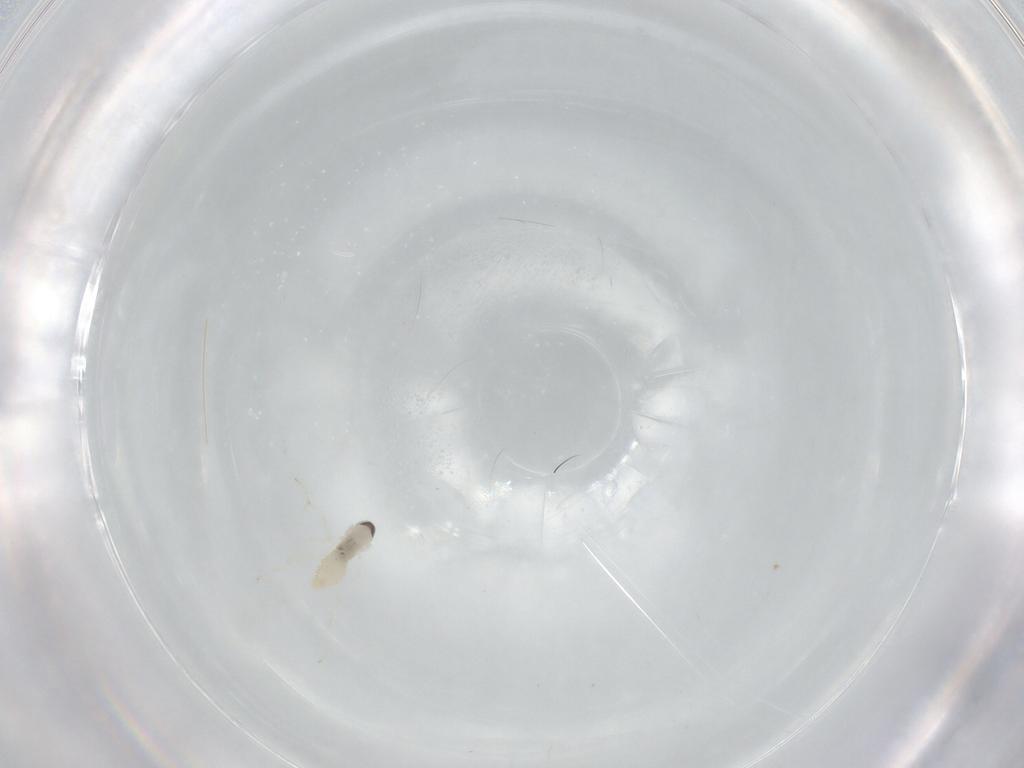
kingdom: Animalia
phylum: Arthropoda
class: Insecta
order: Diptera
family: Cecidomyiidae
